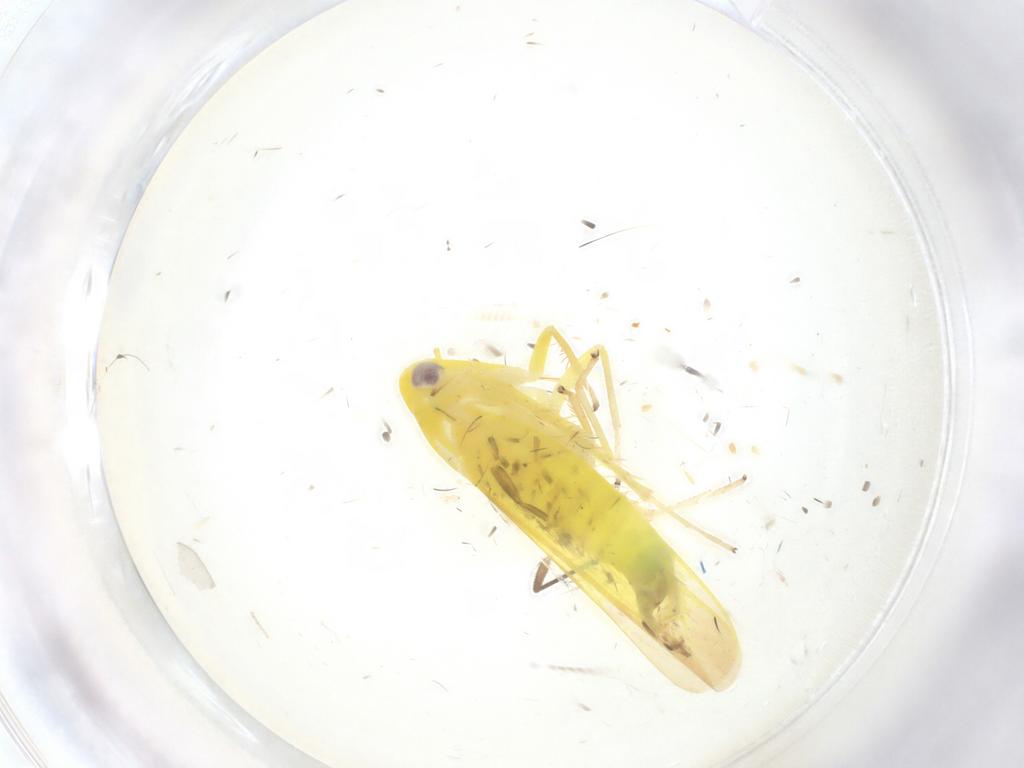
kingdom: Animalia
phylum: Arthropoda
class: Insecta
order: Hemiptera
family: Cicadellidae
